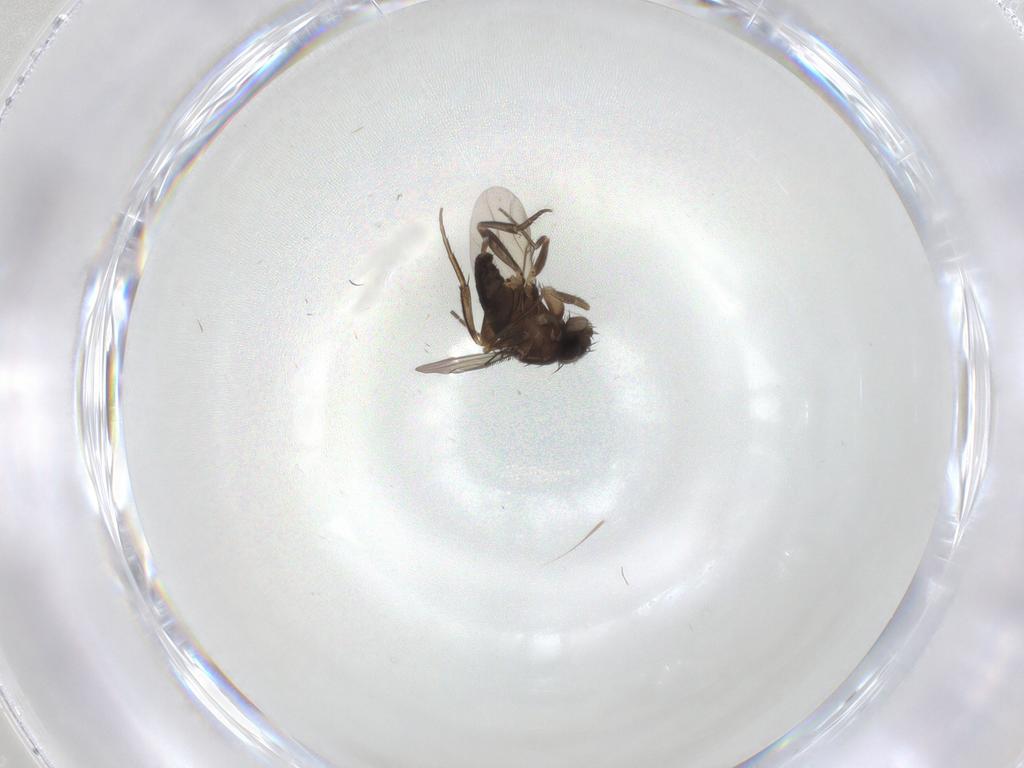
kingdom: Animalia
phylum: Arthropoda
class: Insecta
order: Diptera
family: Phoridae
